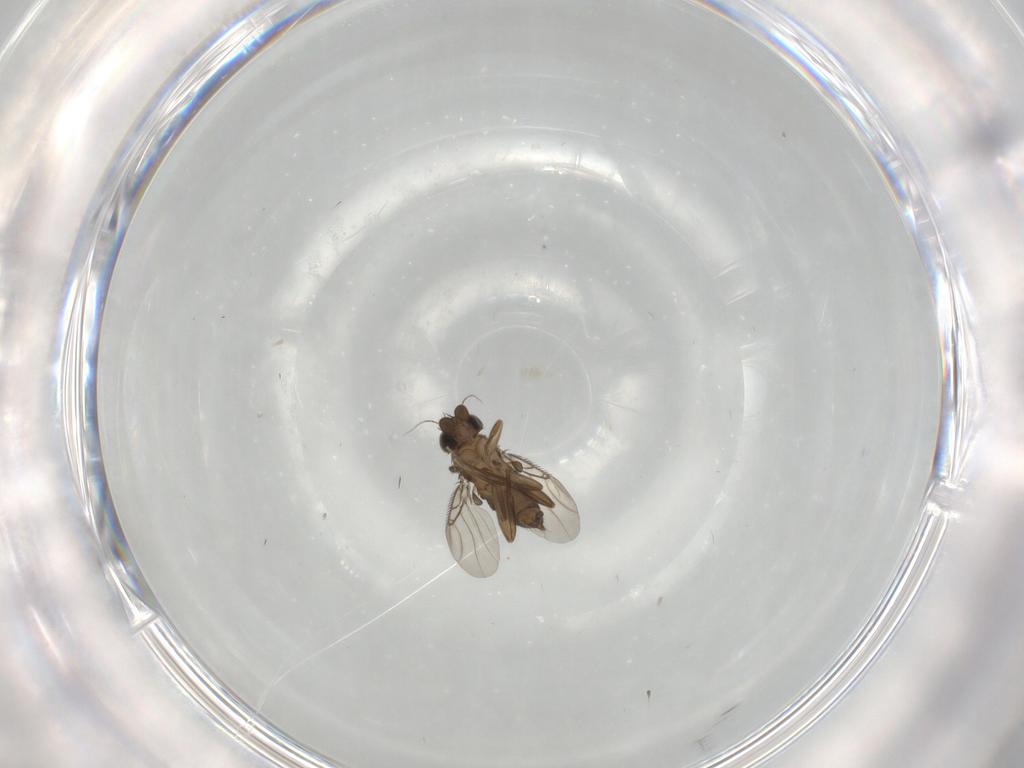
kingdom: Animalia
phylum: Arthropoda
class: Insecta
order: Diptera
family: Phoridae
